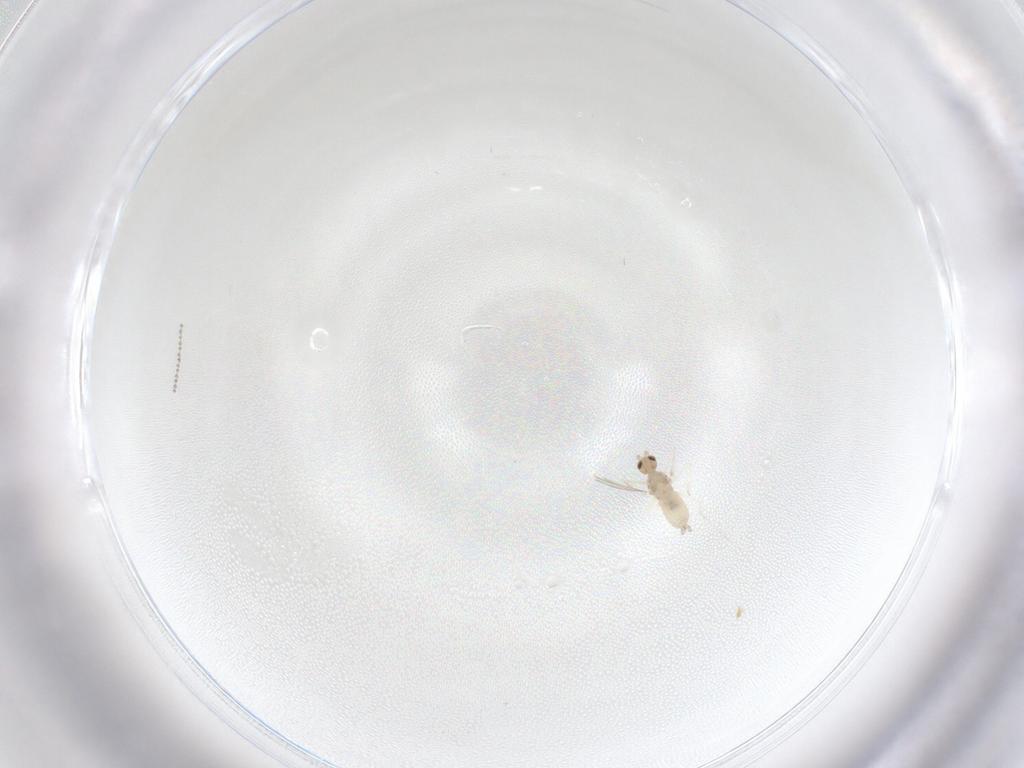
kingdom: Animalia
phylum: Arthropoda
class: Insecta
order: Diptera
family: Cecidomyiidae
